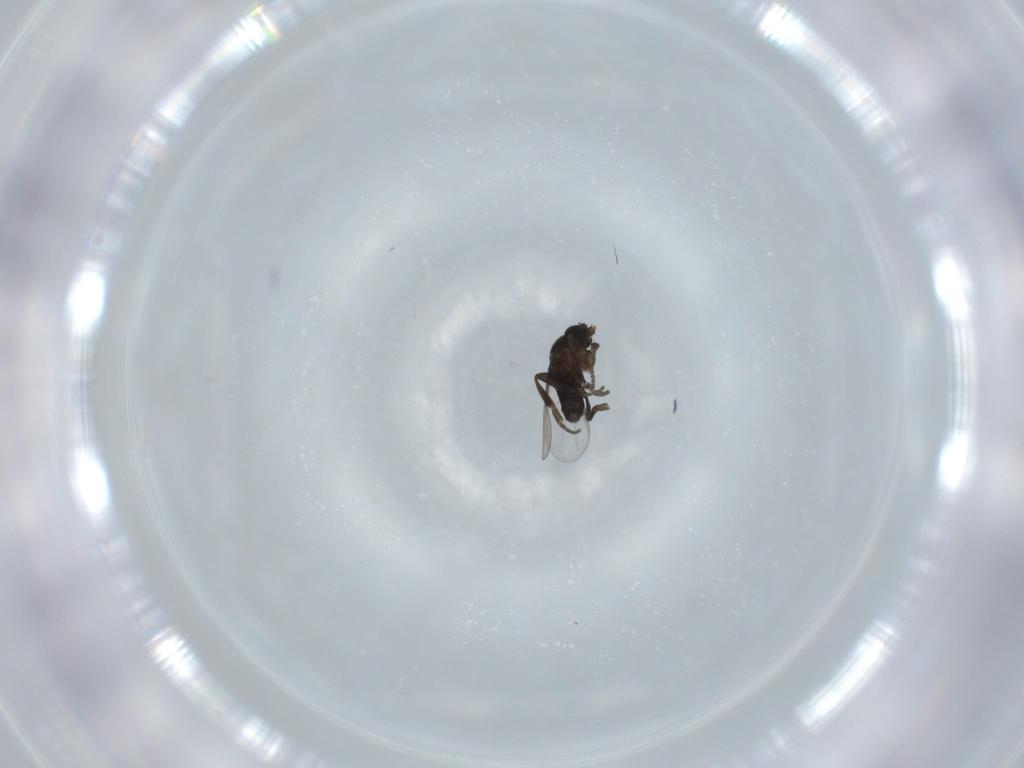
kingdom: Animalia
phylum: Arthropoda
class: Insecta
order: Diptera
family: Phoridae
